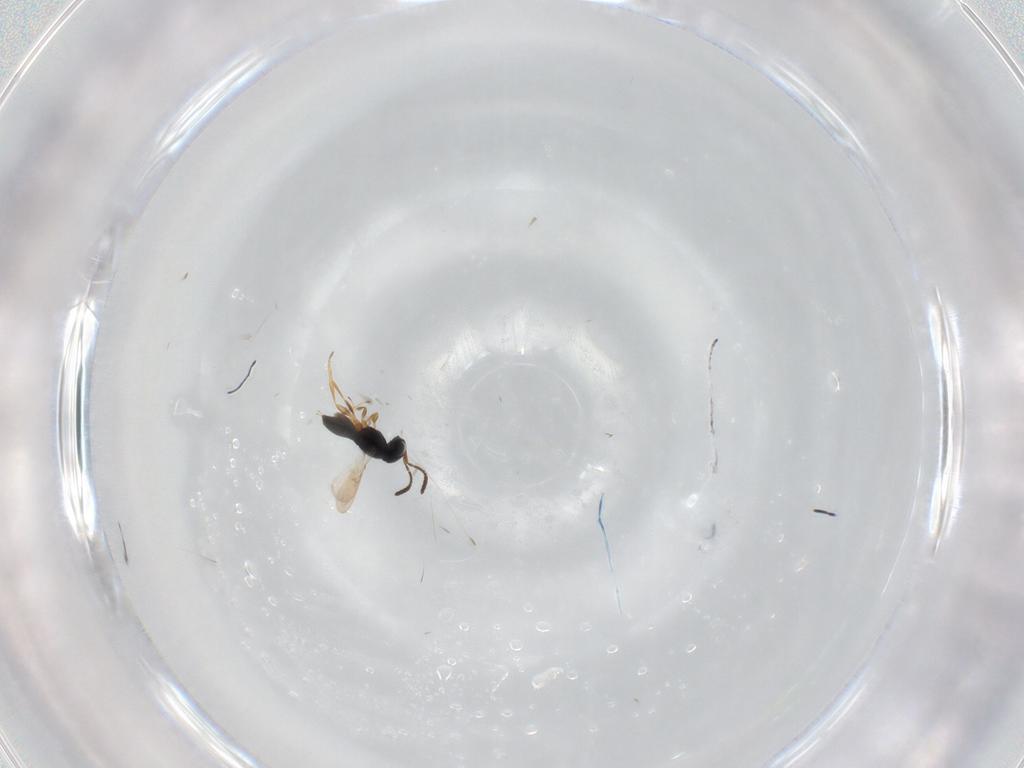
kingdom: Animalia
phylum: Arthropoda
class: Insecta
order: Hymenoptera
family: Scelionidae
